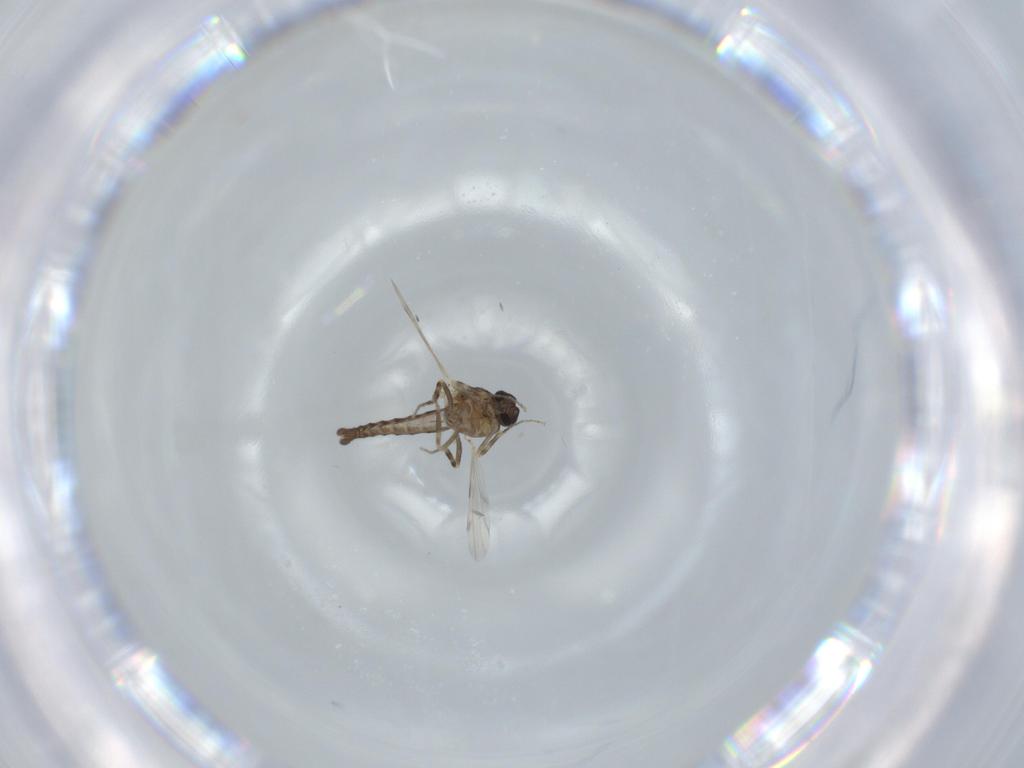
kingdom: Animalia
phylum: Arthropoda
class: Insecta
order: Diptera
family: Ceratopogonidae
